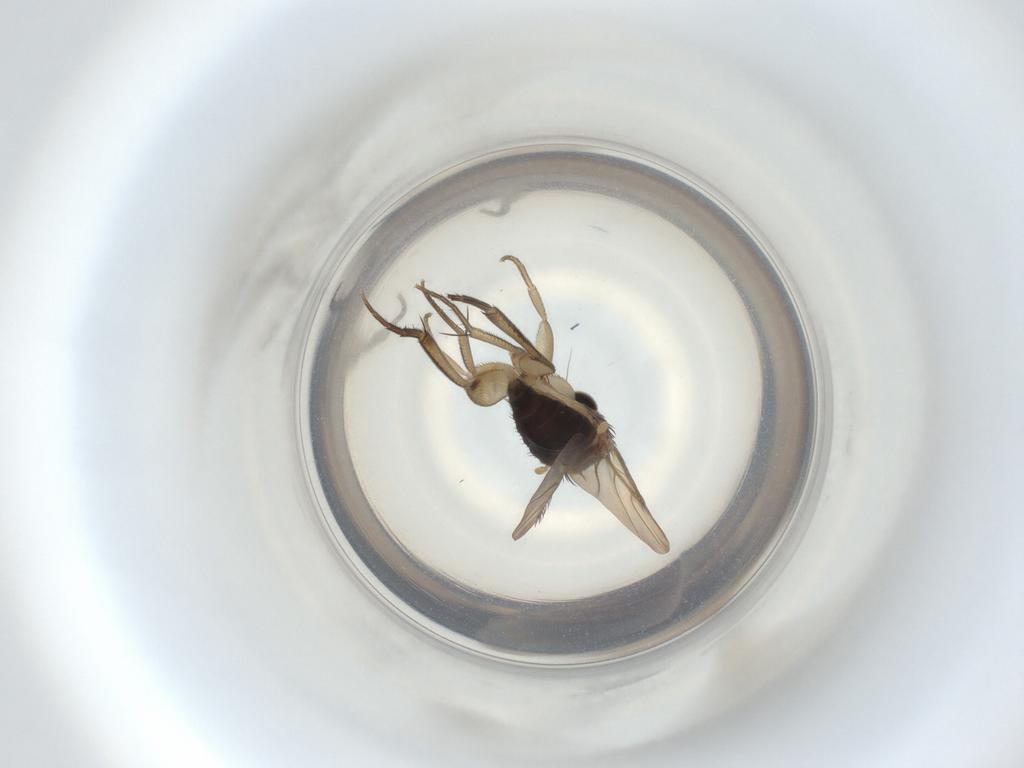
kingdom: Animalia
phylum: Arthropoda
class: Insecta
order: Diptera
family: Phoridae
